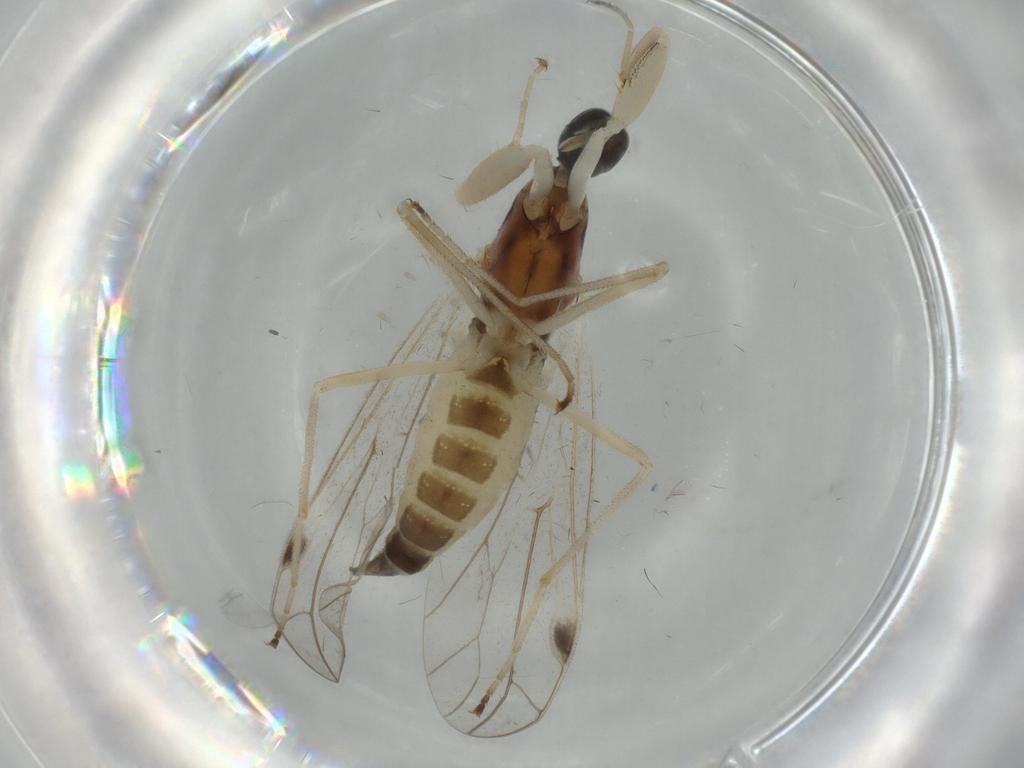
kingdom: Animalia
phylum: Arthropoda
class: Insecta
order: Diptera
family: Empididae
